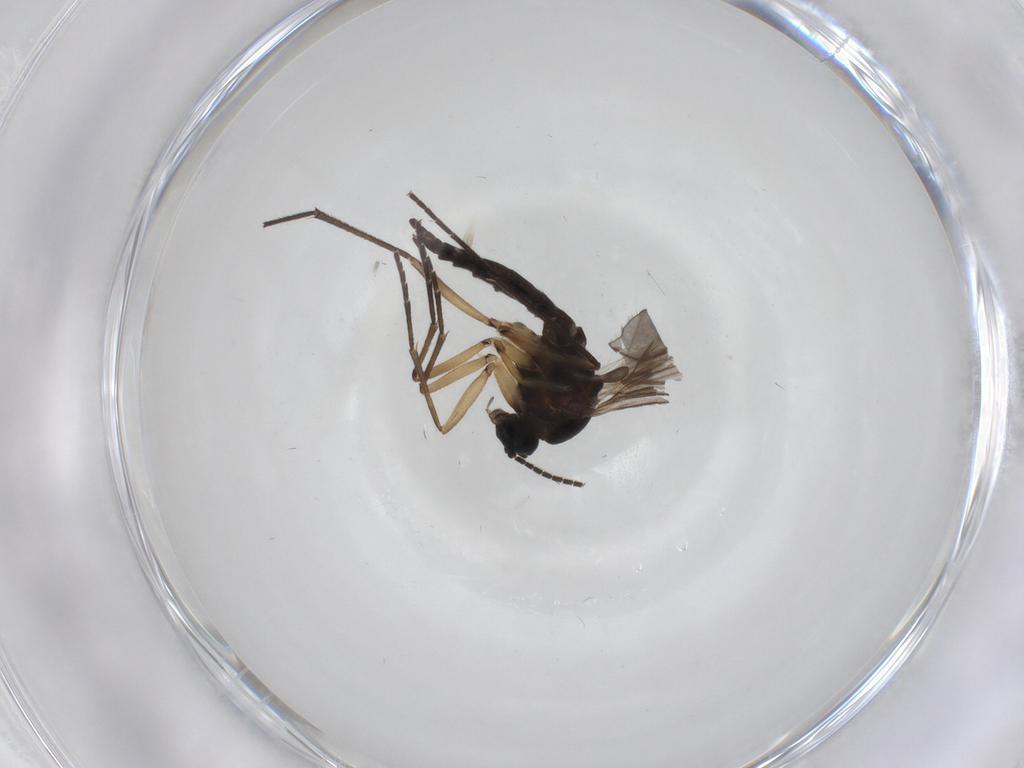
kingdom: Animalia
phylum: Arthropoda
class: Insecta
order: Diptera
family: Sciaridae
